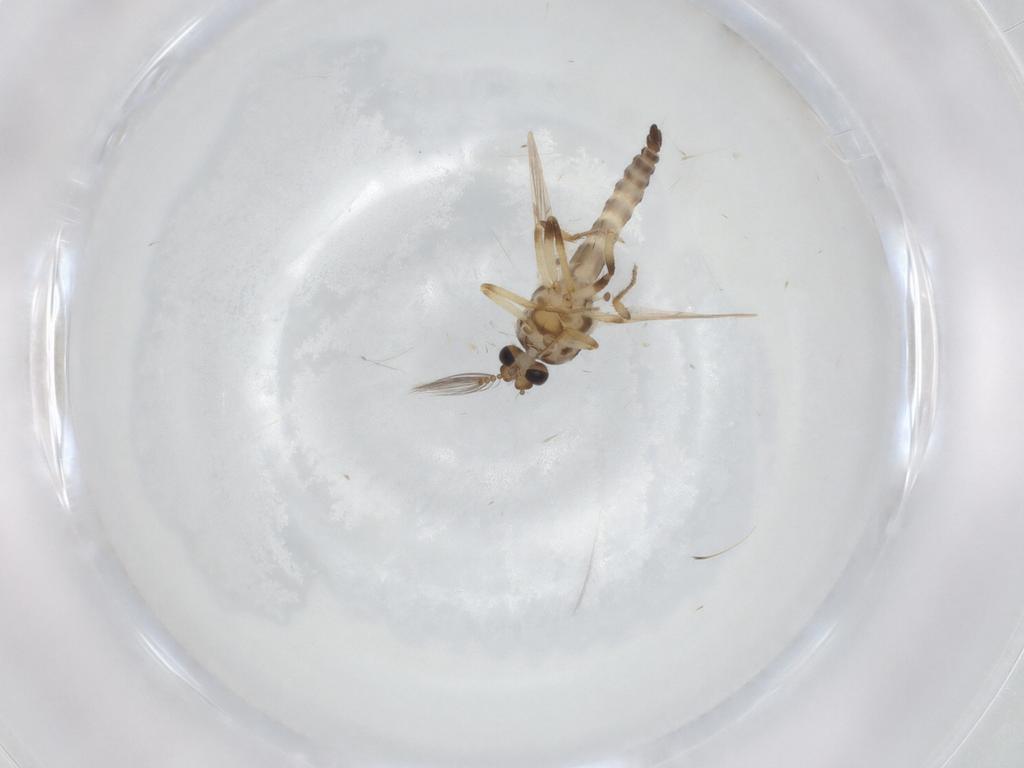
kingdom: Animalia
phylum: Arthropoda
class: Insecta
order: Diptera
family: Ceratopogonidae
